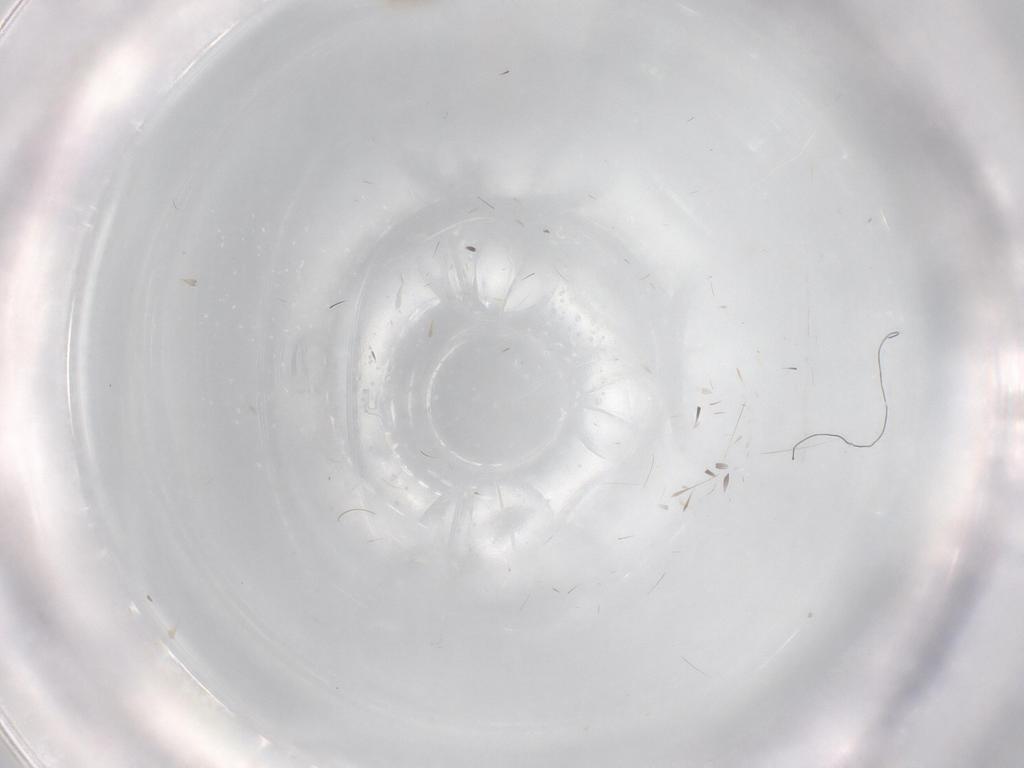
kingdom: Animalia
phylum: Arthropoda
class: Insecta
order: Diptera
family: Psychodidae
